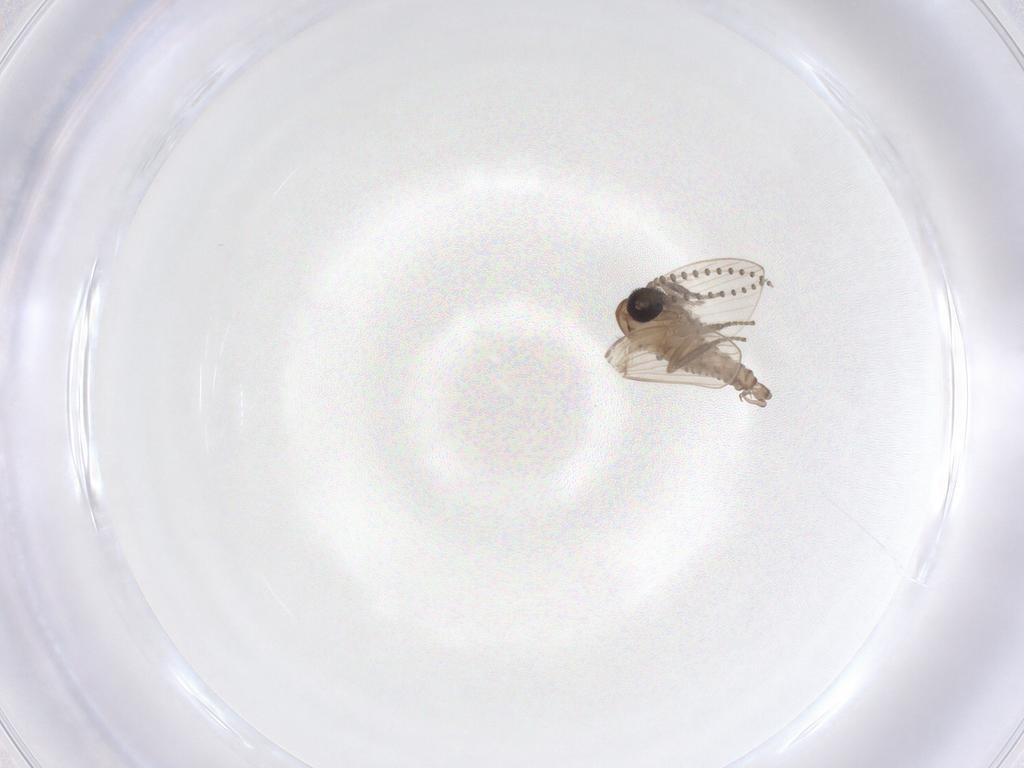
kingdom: Animalia
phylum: Arthropoda
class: Insecta
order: Diptera
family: Psychodidae
